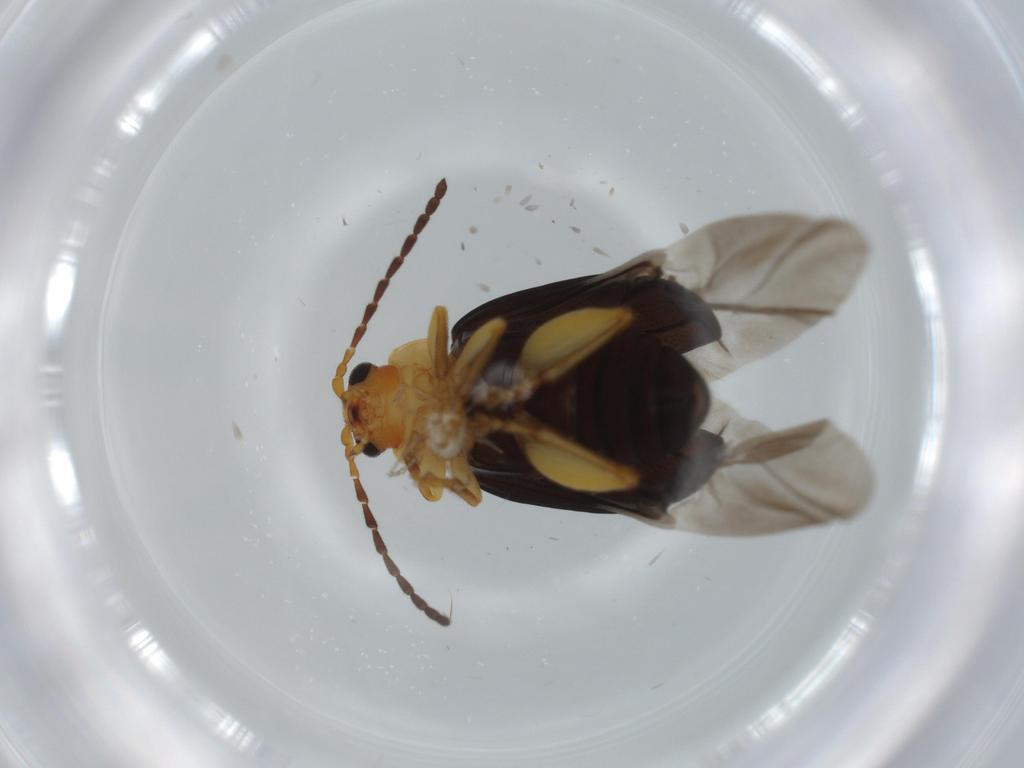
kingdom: Animalia
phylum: Arthropoda
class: Insecta
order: Coleoptera
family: Chrysomelidae
